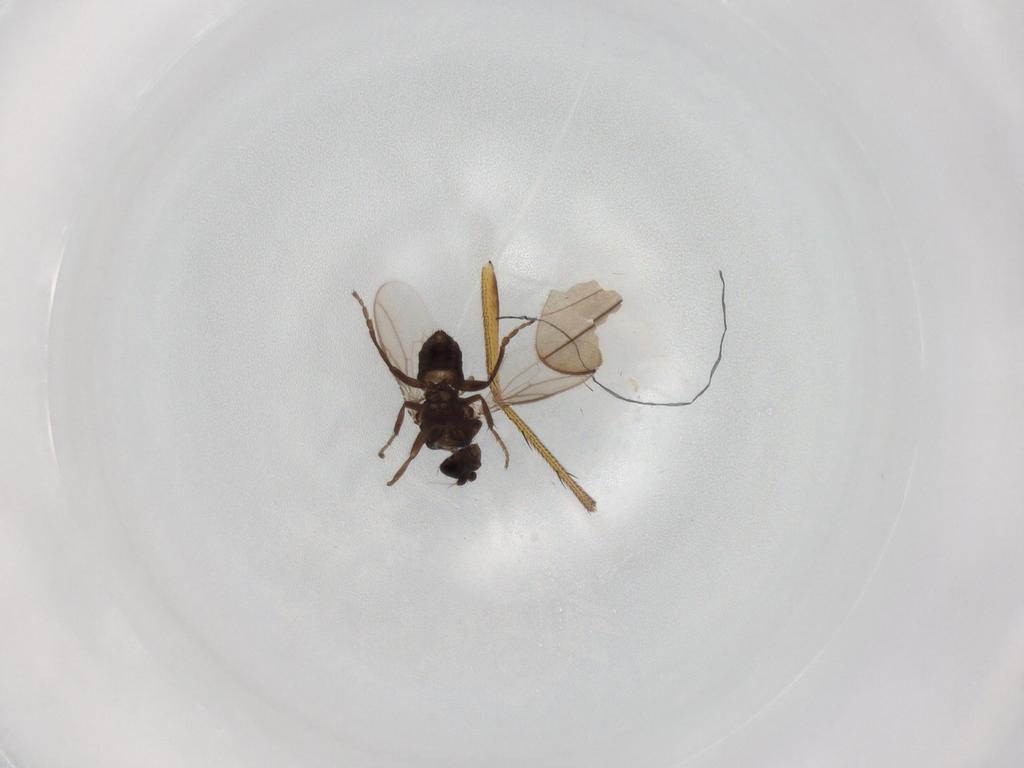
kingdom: Animalia
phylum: Arthropoda
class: Insecta
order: Diptera
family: Sphaeroceridae
